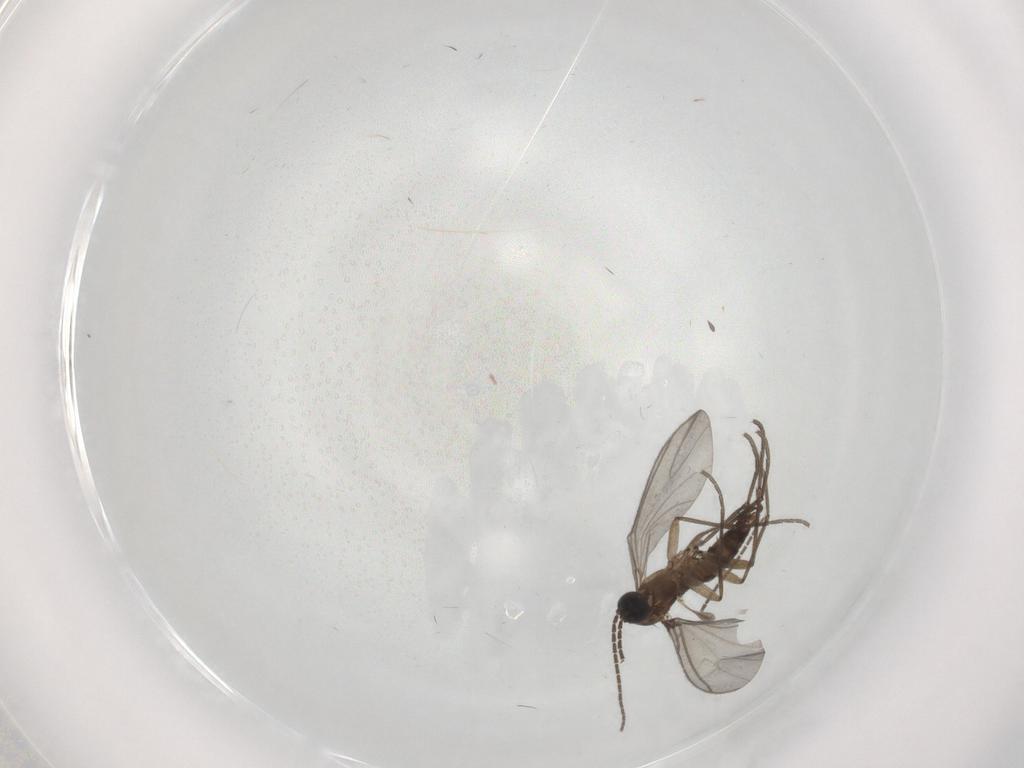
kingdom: Animalia
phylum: Arthropoda
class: Insecta
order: Diptera
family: Sciaridae
